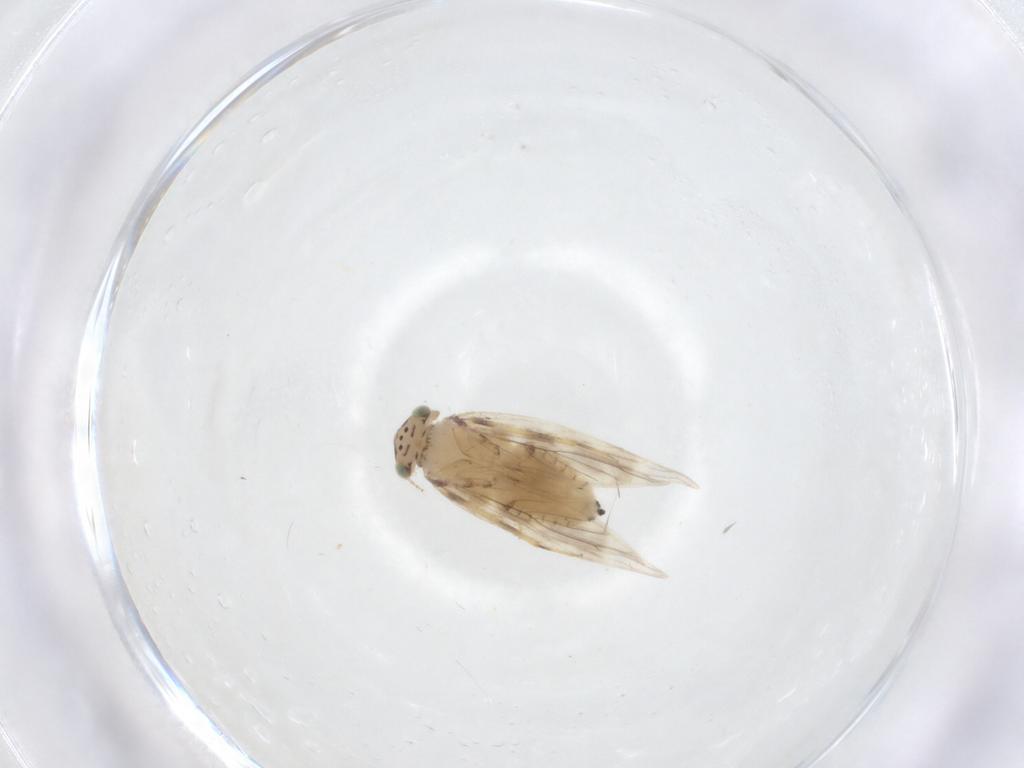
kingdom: Animalia
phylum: Arthropoda
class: Insecta
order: Psocodea
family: Lepidopsocidae
